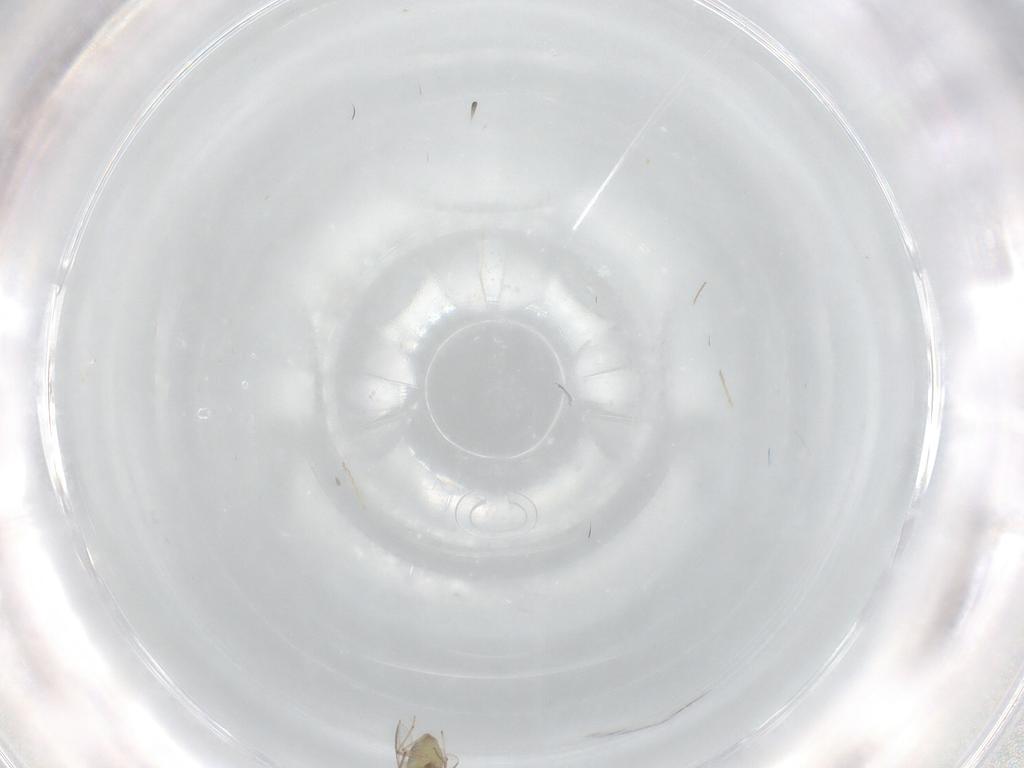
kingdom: Animalia
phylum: Arthropoda
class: Insecta
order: Diptera
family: Chironomidae
